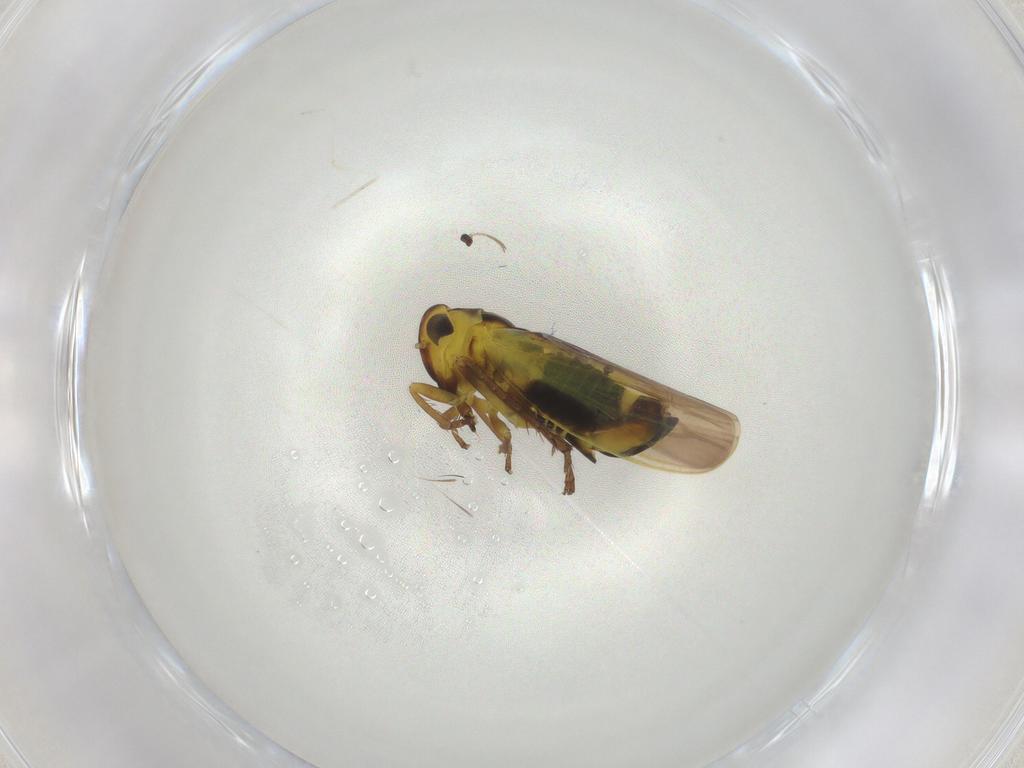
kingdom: Animalia
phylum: Arthropoda
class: Insecta
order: Hemiptera
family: Cicadellidae
